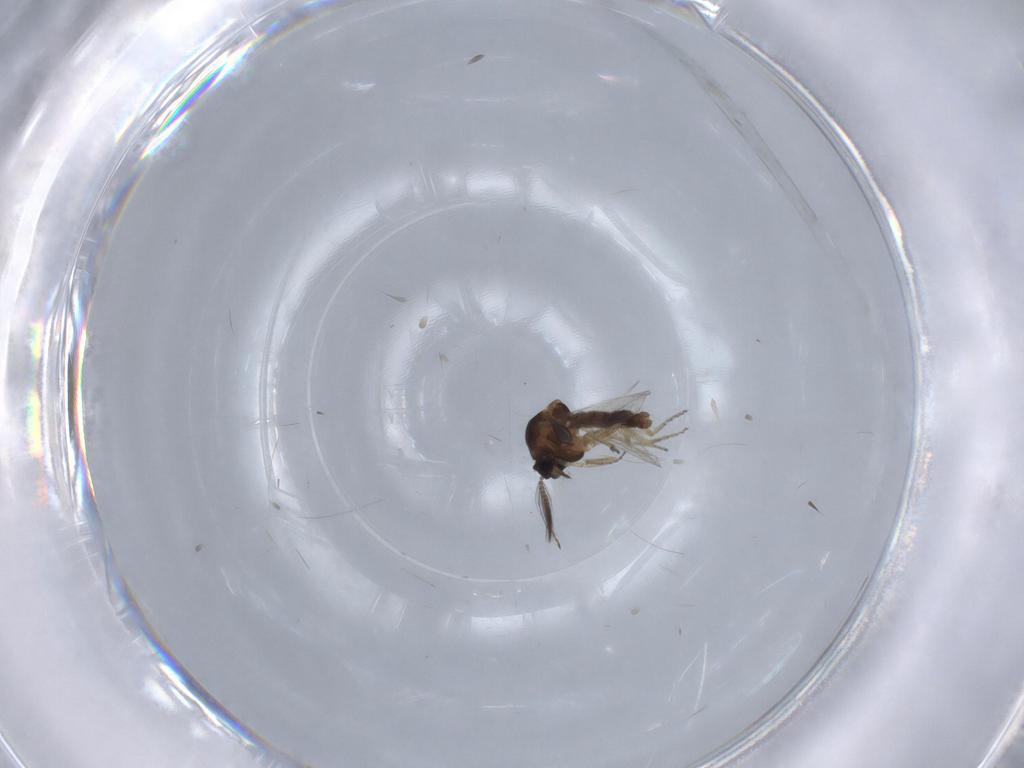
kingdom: Animalia
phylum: Arthropoda
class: Insecta
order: Diptera
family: Ceratopogonidae
